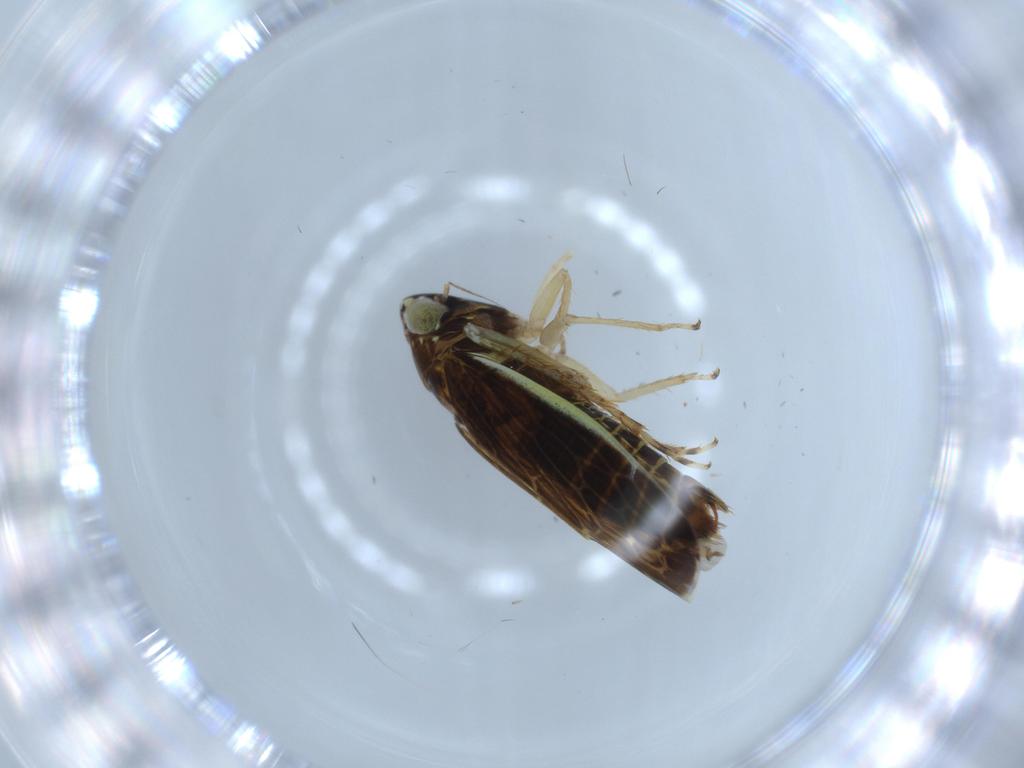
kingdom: Animalia
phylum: Arthropoda
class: Insecta
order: Hemiptera
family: Cicadellidae
